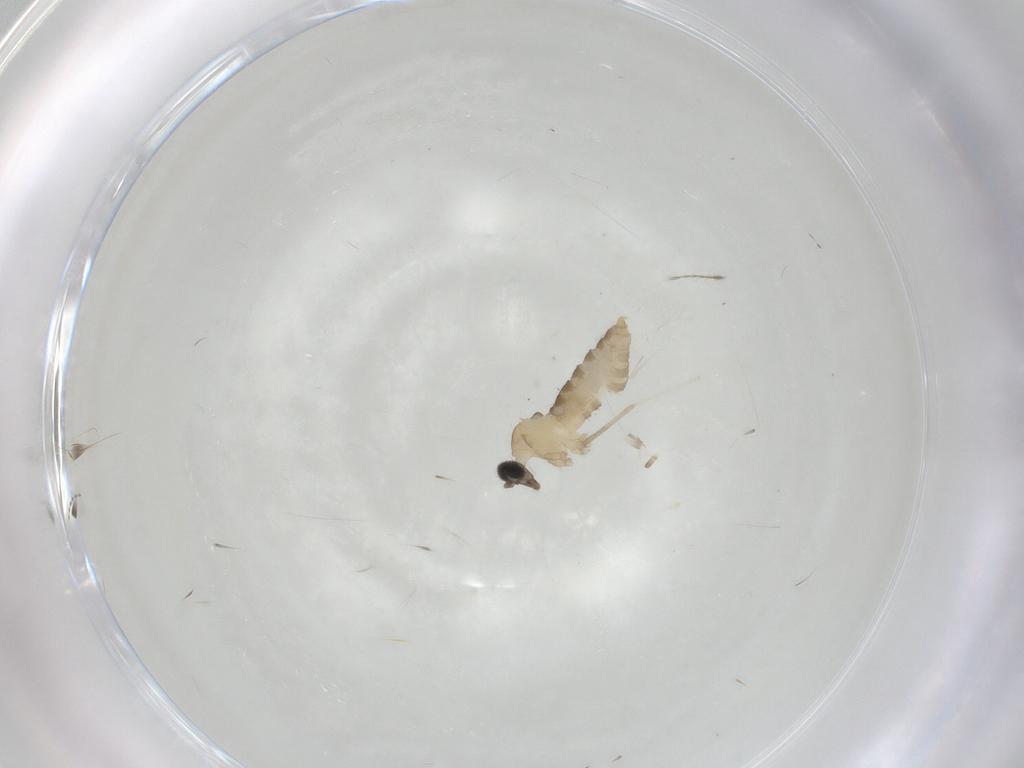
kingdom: Animalia
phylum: Arthropoda
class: Insecta
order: Diptera
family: Cecidomyiidae
